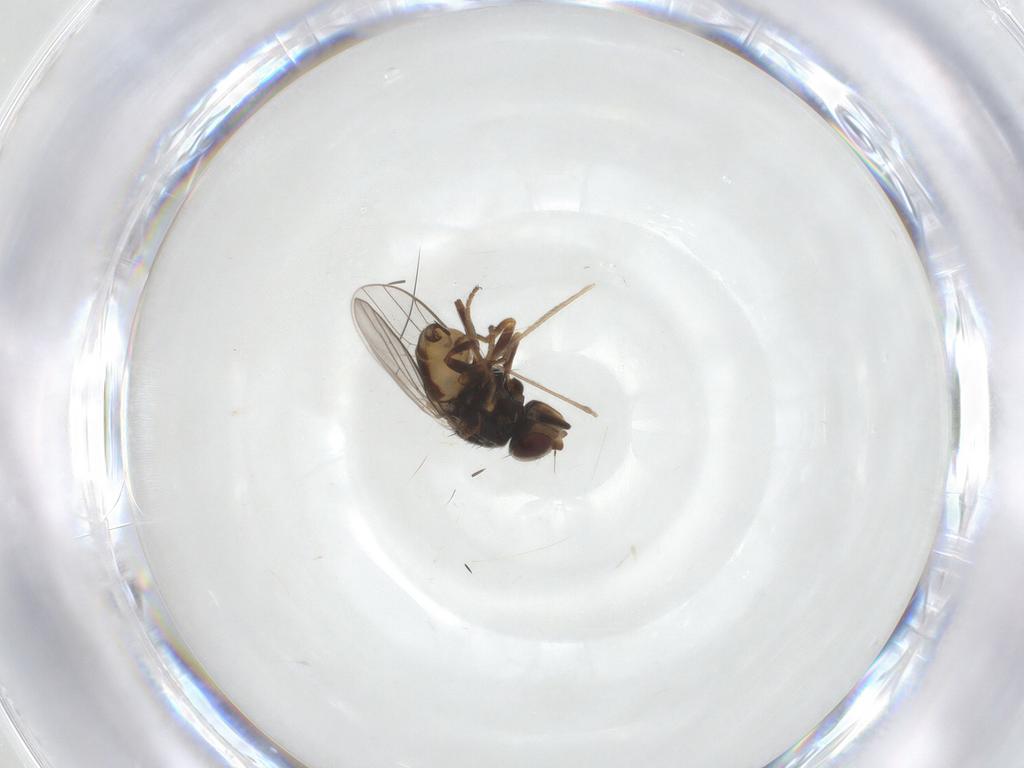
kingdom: Animalia
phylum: Arthropoda
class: Insecta
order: Diptera
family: Chloropidae
